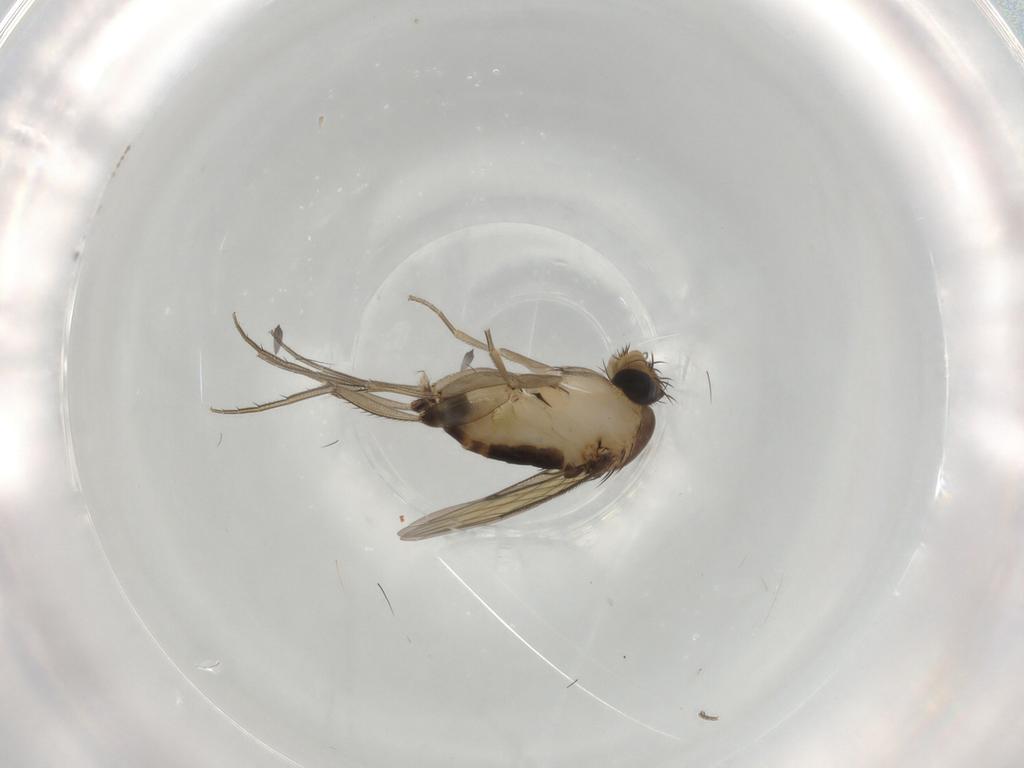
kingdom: Animalia
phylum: Arthropoda
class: Insecta
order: Diptera
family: Phoridae
